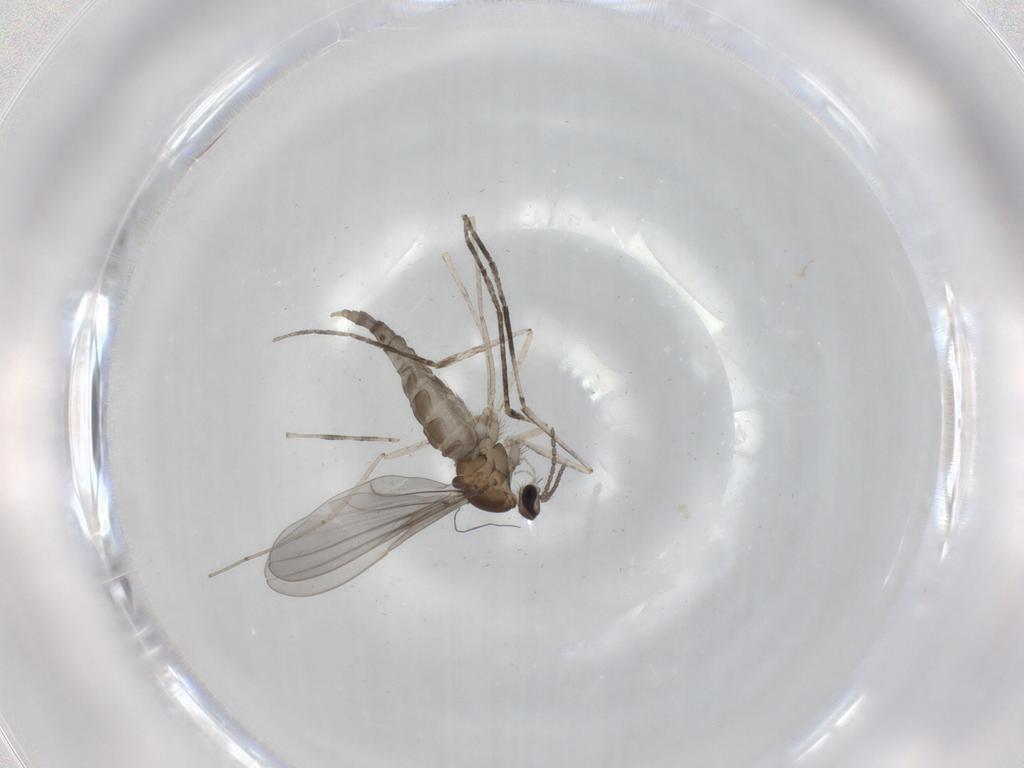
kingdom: Animalia
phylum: Arthropoda
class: Insecta
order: Diptera
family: Cecidomyiidae
